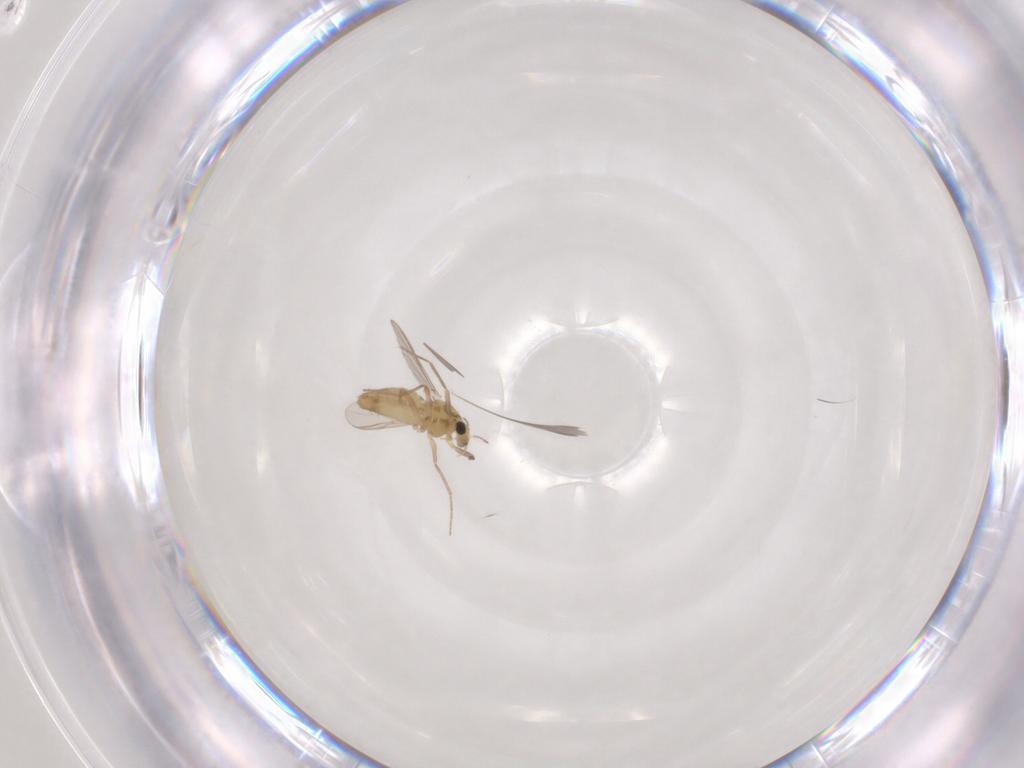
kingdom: Animalia
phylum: Arthropoda
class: Insecta
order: Diptera
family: Chironomidae
